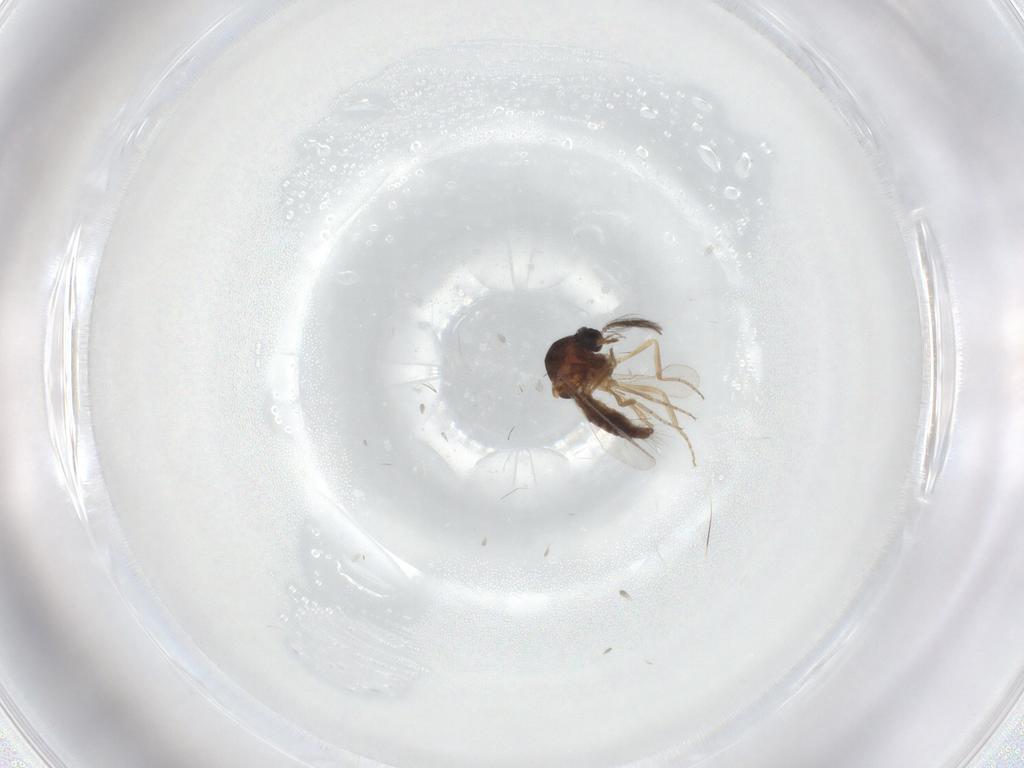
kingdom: Animalia
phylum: Arthropoda
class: Insecta
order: Diptera
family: Ceratopogonidae
